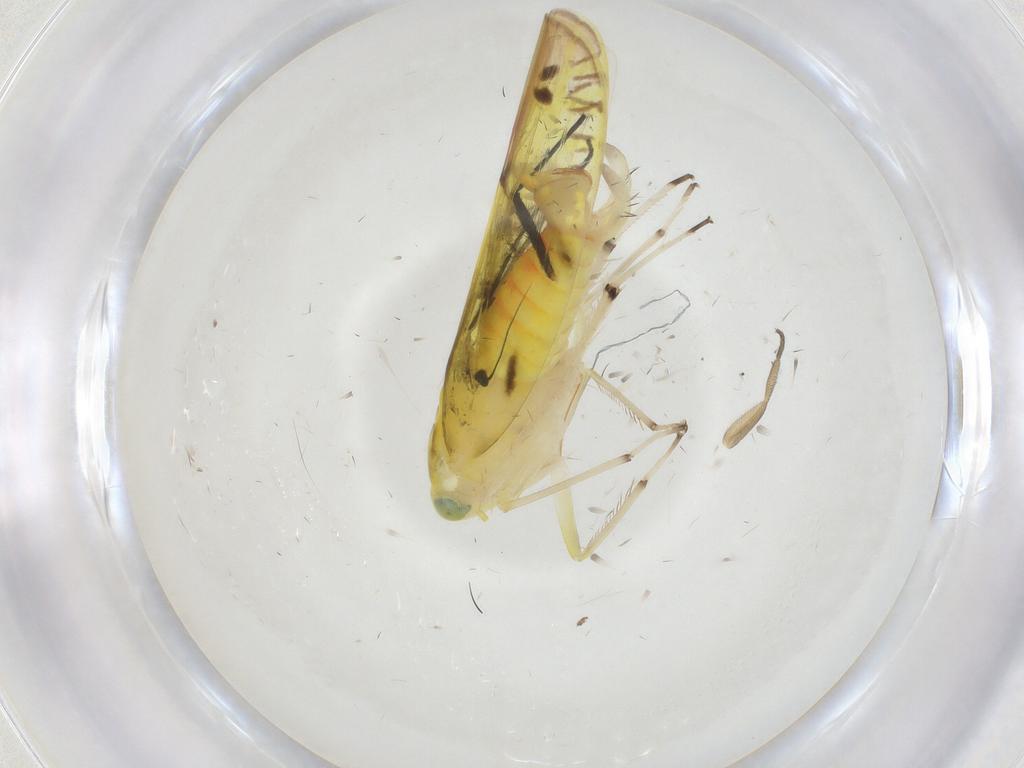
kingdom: Animalia
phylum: Arthropoda
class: Insecta
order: Hemiptera
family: Cicadellidae
